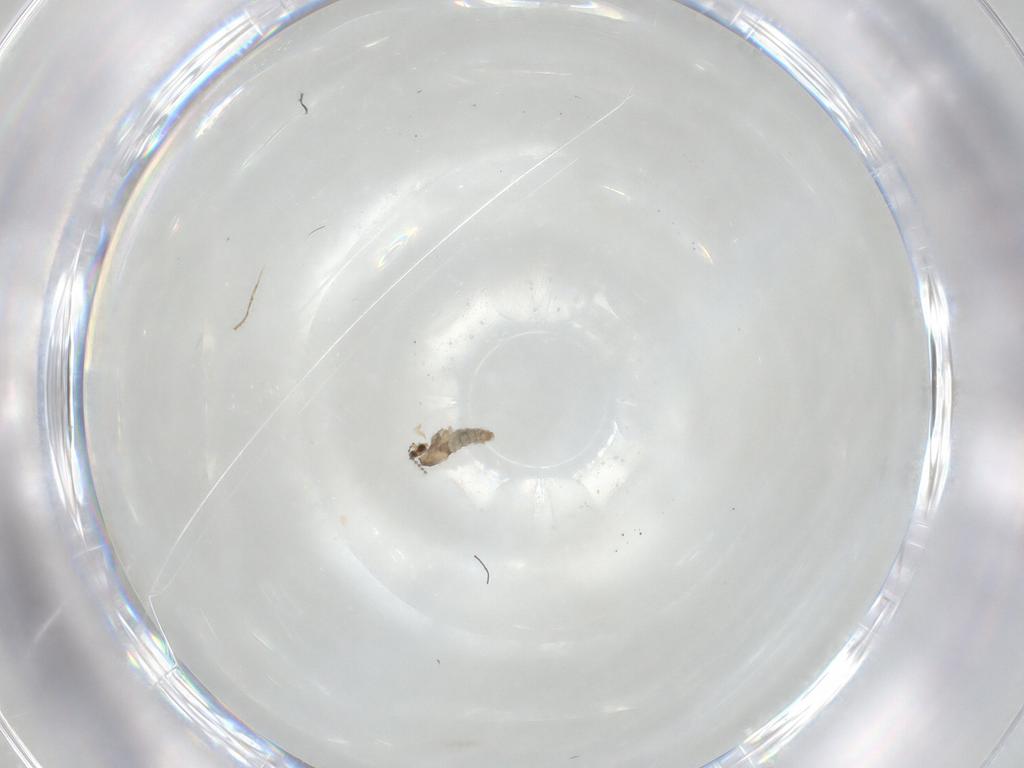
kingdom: Animalia
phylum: Arthropoda
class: Insecta
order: Diptera
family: Cecidomyiidae
